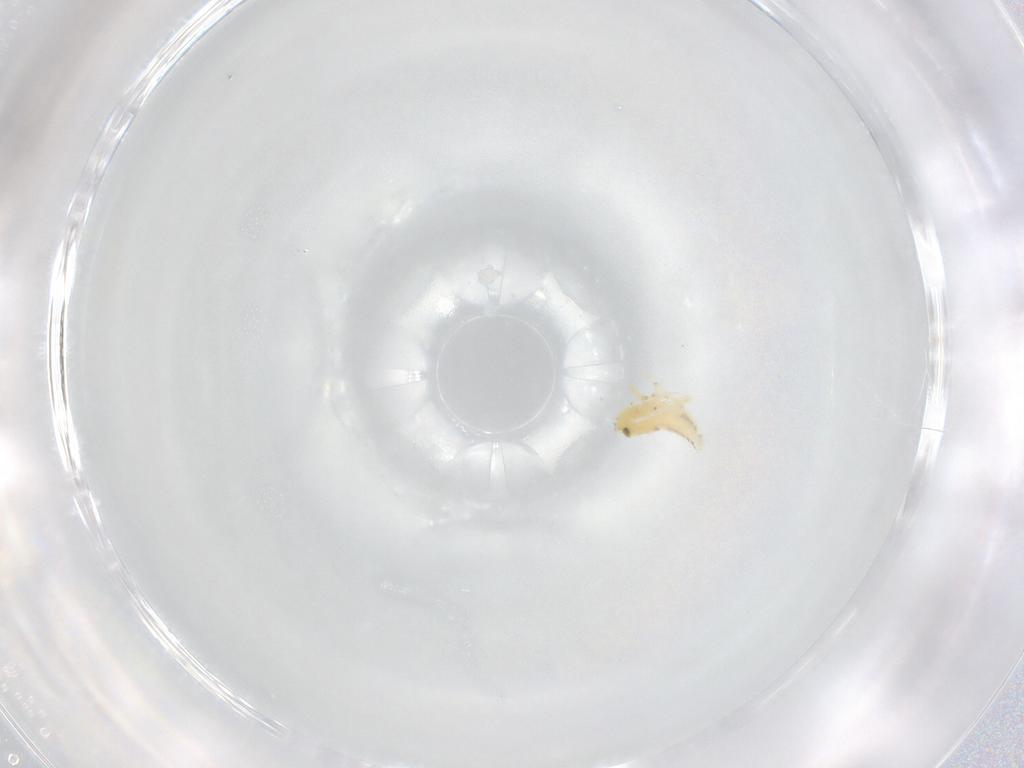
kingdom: Animalia
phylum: Arthropoda
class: Insecta
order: Hemiptera
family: Cicadellidae
